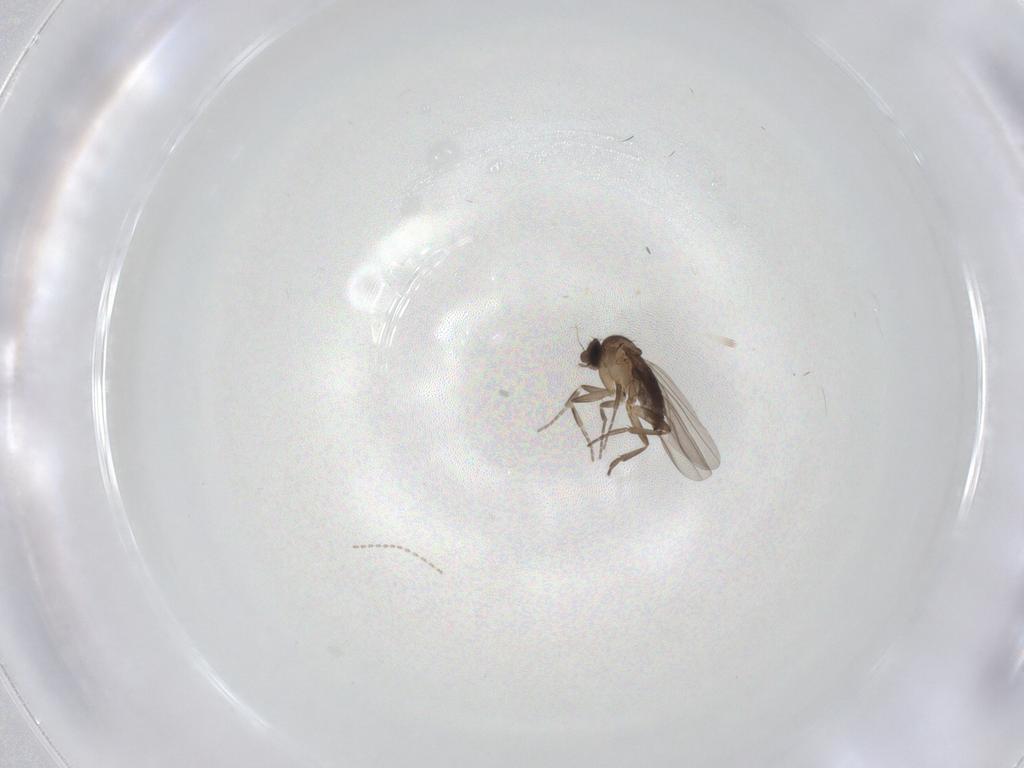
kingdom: Animalia
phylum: Arthropoda
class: Insecta
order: Diptera
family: Cecidomyiidae
